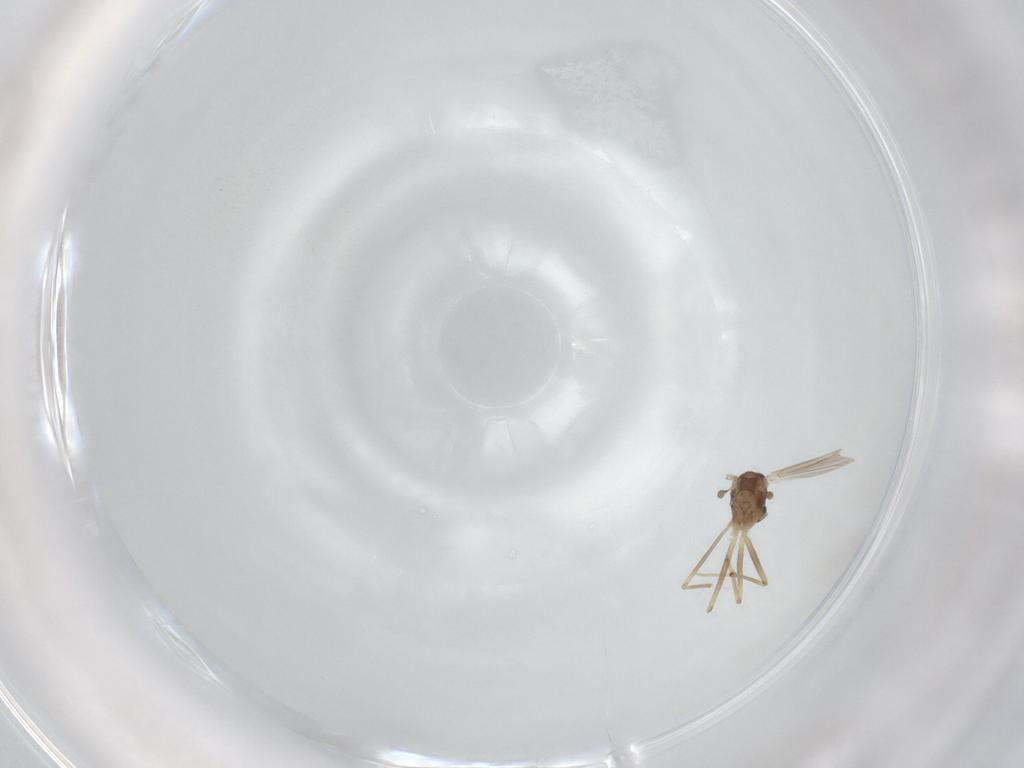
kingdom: Animalia
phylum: Arthropoda
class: Insecta
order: Diptera
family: Chironomidae
